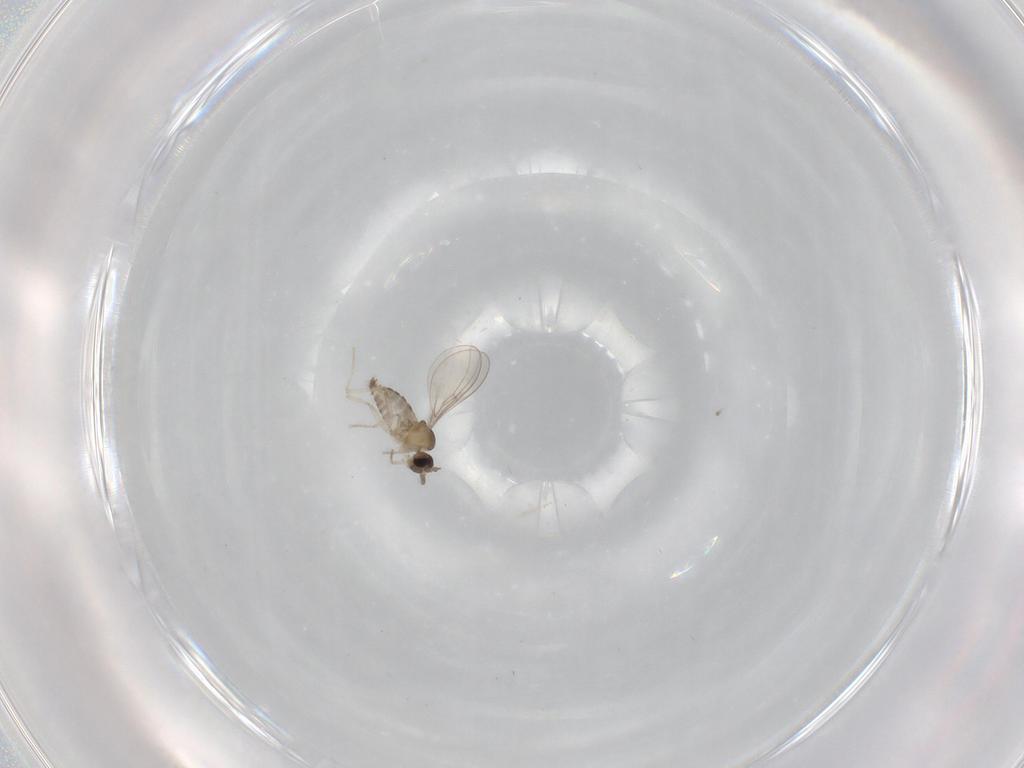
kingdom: Animalia
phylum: Arthropoda
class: Insecta
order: Diptera
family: Cecidomyiidae
